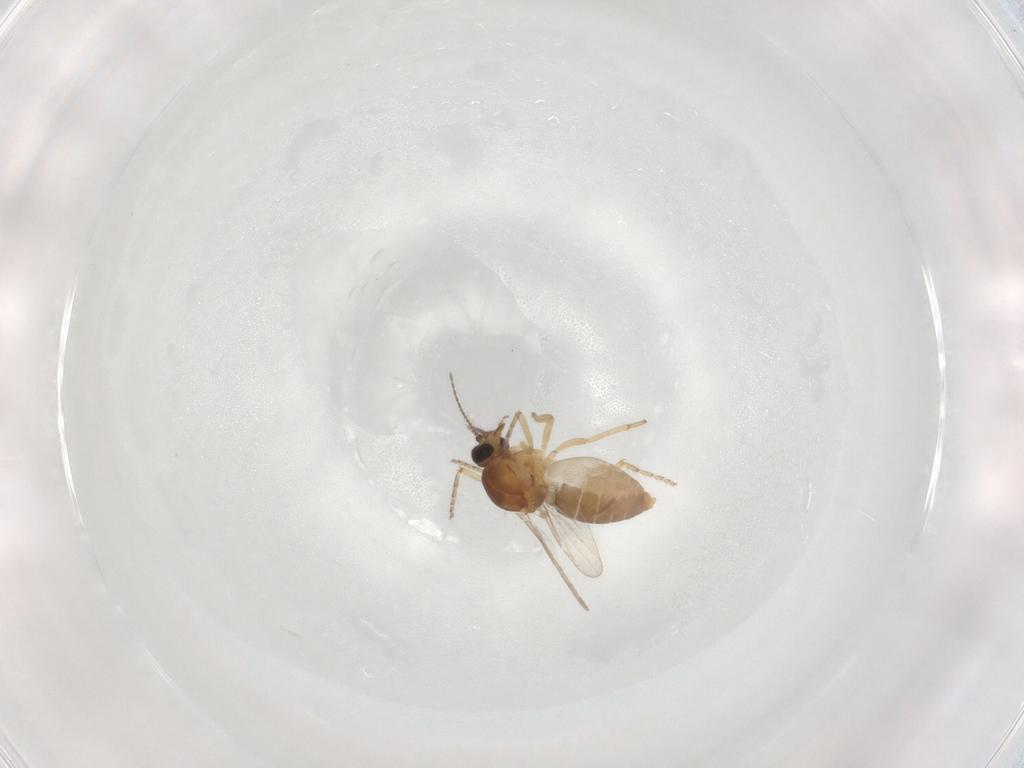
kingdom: Animalia
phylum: Arthropoda
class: Insecta
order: Diptera
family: Ceratopogonidae
